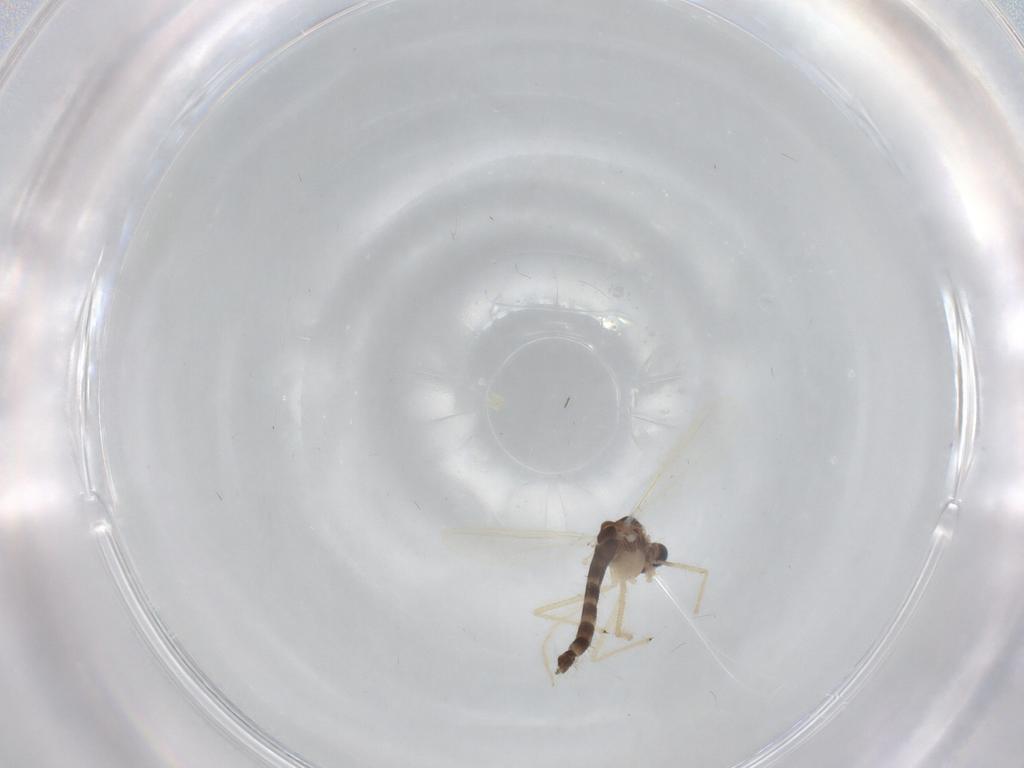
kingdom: Animalia
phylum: Arthropoda
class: Insecta
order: Diptera
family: Chironomidae
